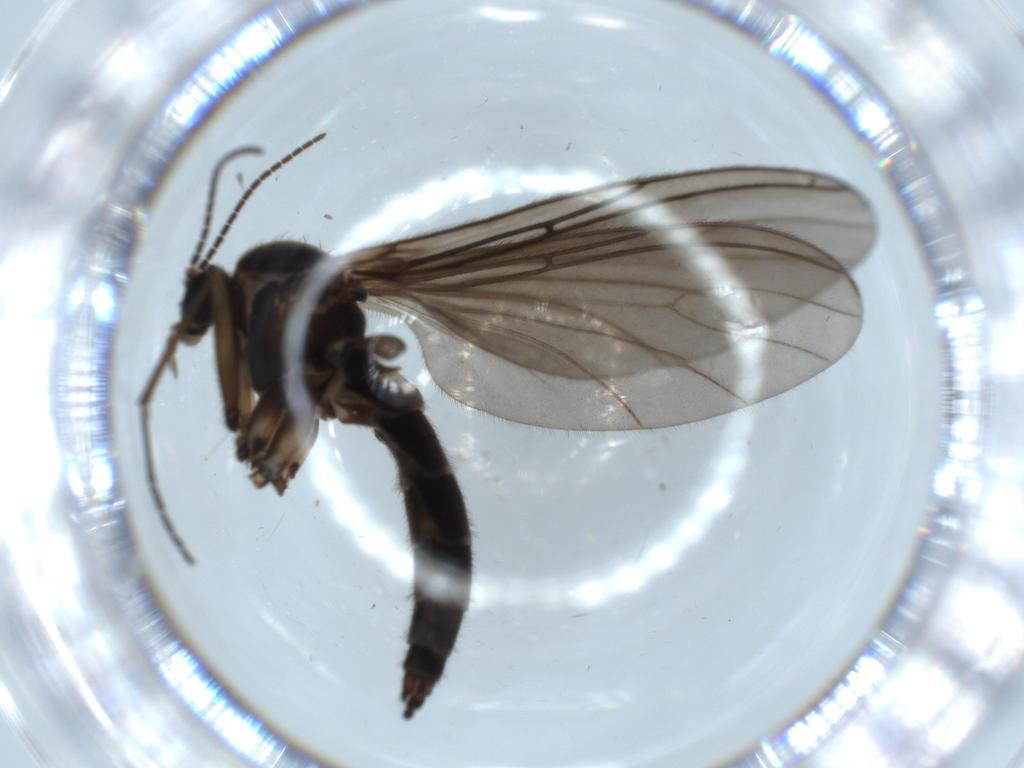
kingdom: Animalia
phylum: Arthropoda
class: Insecta
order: Diptera
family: Sciaridae
